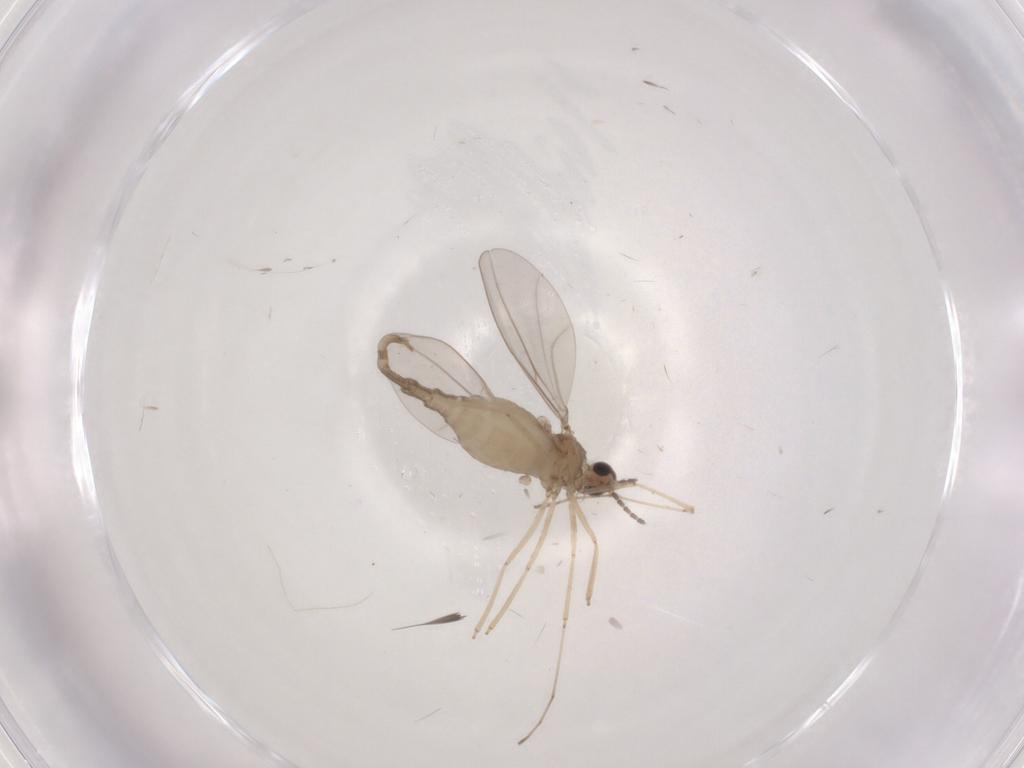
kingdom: Animalia
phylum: Arthropoda
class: Insecta
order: Diptera
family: Cecidomyiidae
